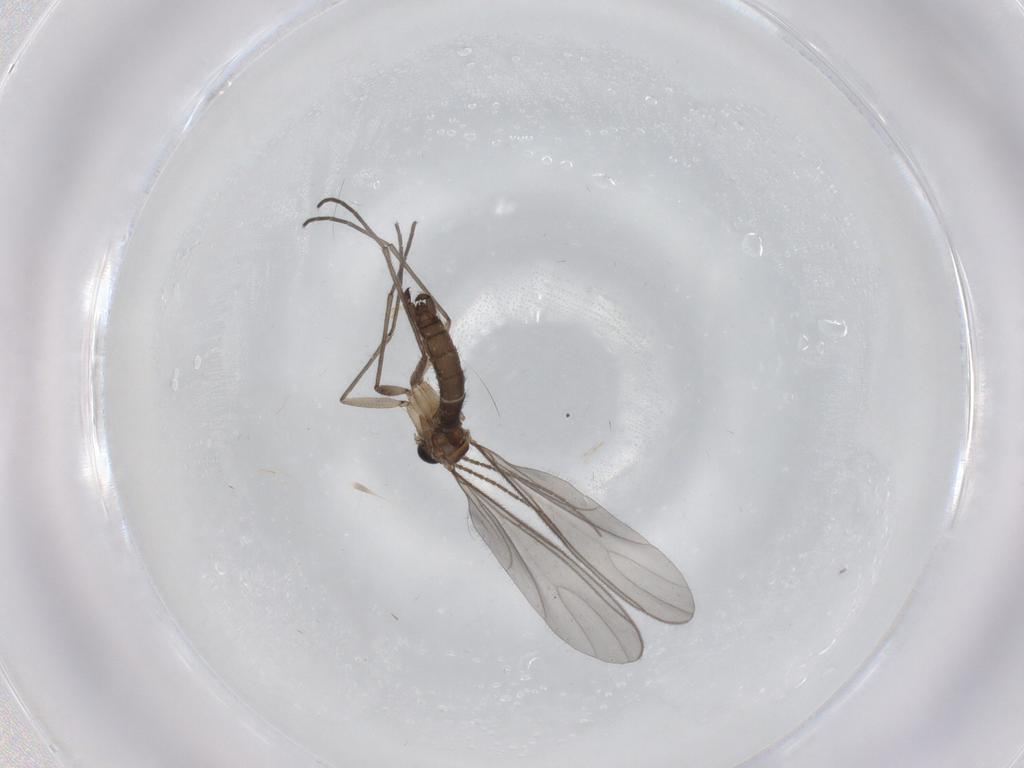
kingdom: Animalia
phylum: Arthropoda
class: Insecta
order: Diptera
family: Sciaridae
